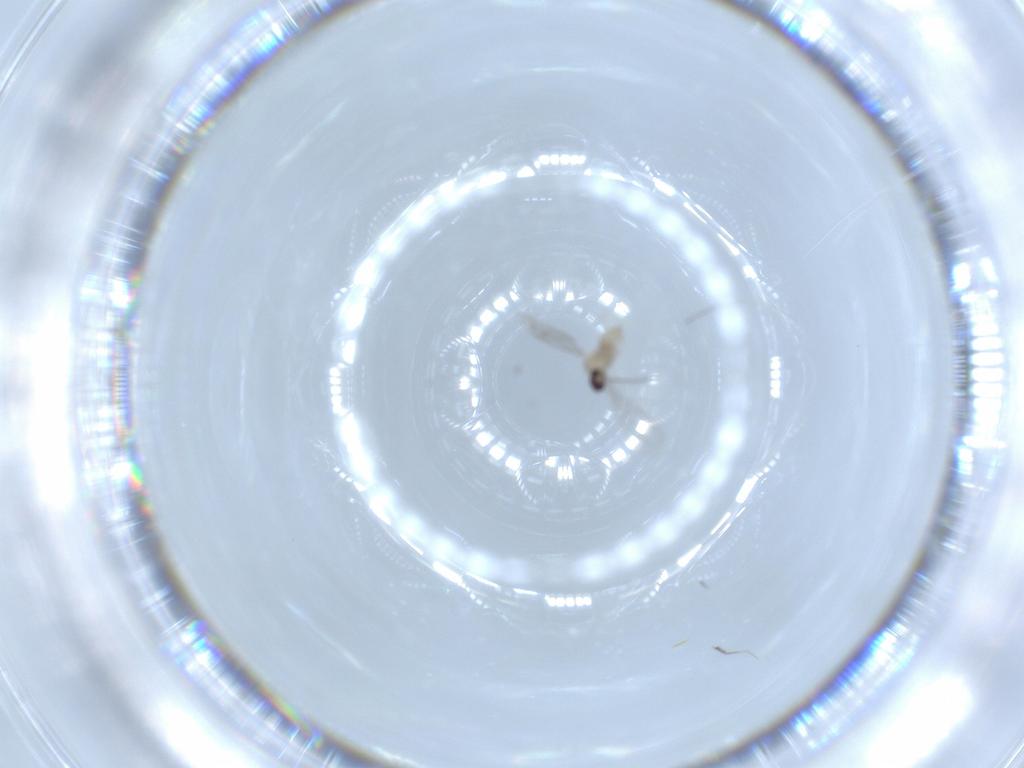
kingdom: Animalia
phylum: Arthropoda
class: Insecta
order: Diptera
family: Cecidomyiidae
